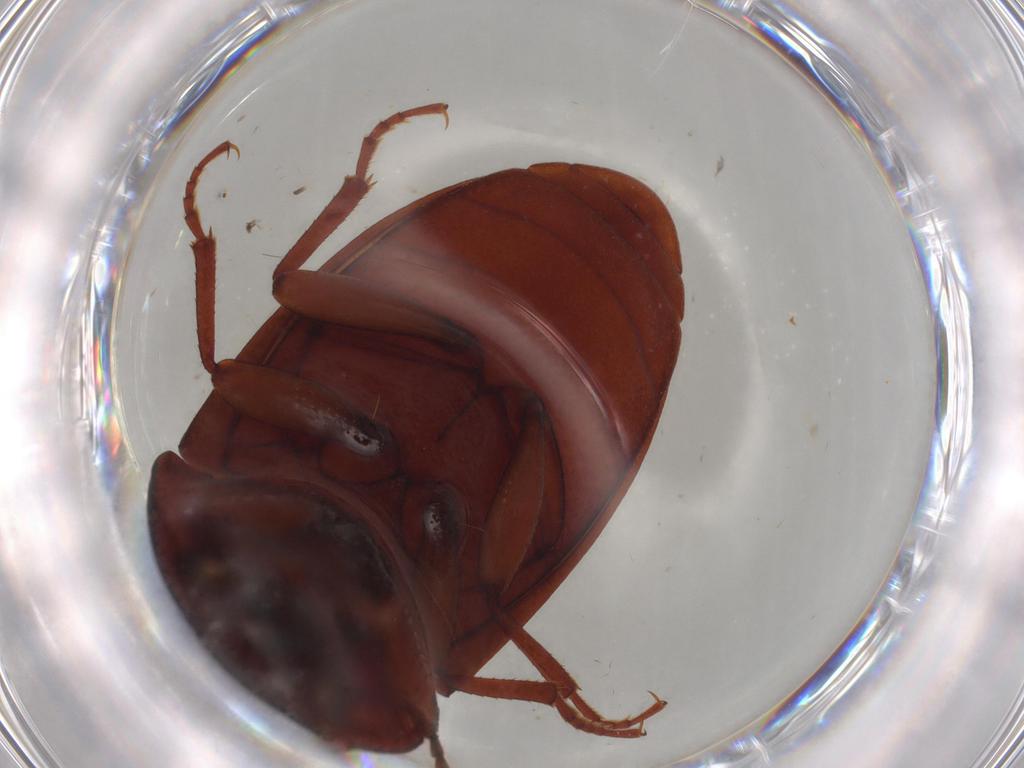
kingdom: Animalia
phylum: Arthropoda
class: Insecta
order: Coleoptera
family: Tenebrionidae
